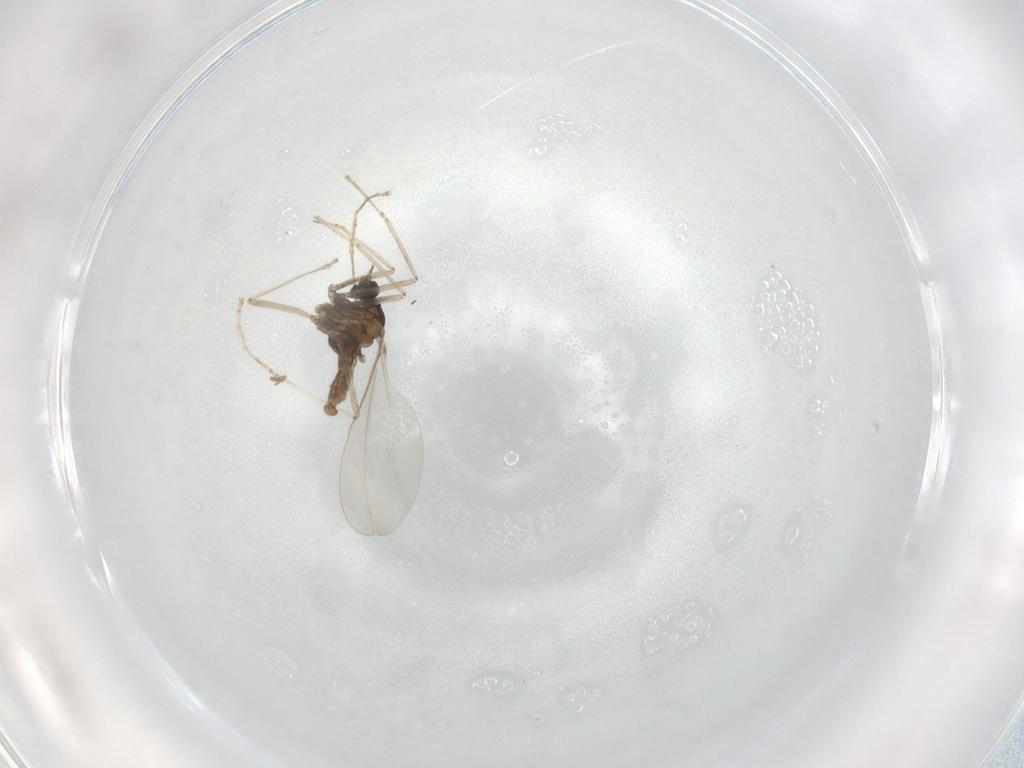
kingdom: Animalia
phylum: Arthropoda
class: Insecta
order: Diptera
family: Cecidomyiidae
